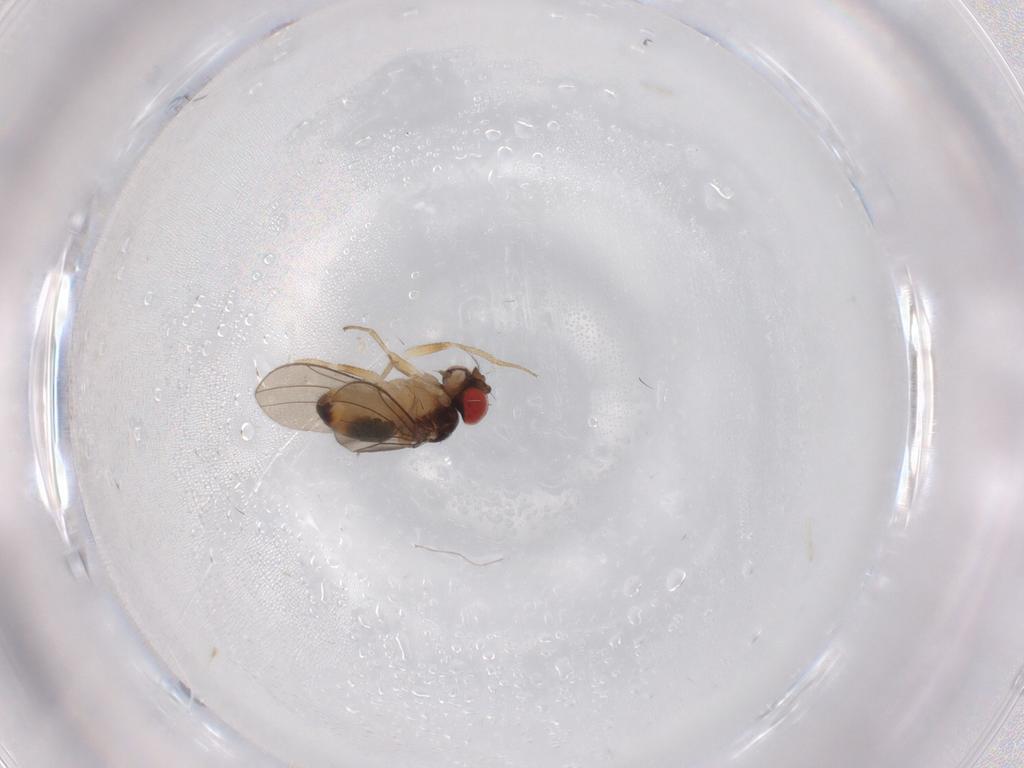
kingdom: Animalia
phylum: Arthropoda
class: Insecta
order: Diptera
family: Drosophilidae
